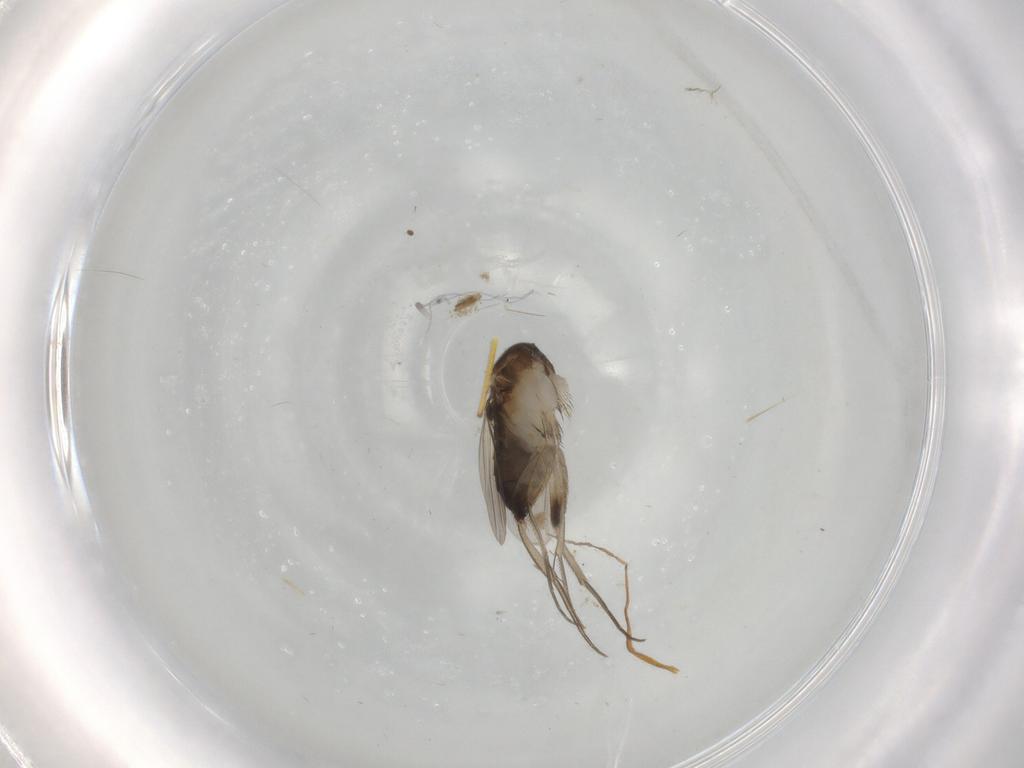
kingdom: Animalia
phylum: Arthropoda
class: Insecta
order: Diptera
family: Phoridae
